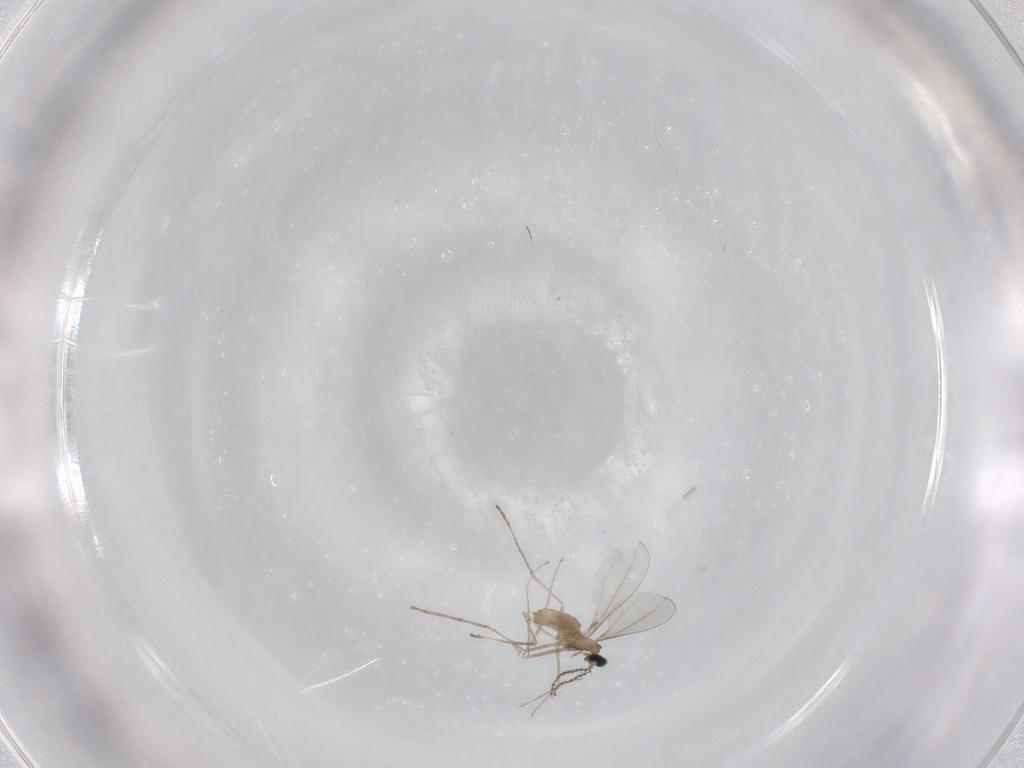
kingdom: Animalia
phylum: Arthropoda
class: Insecta
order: Diptera
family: Cecidomyiidae
